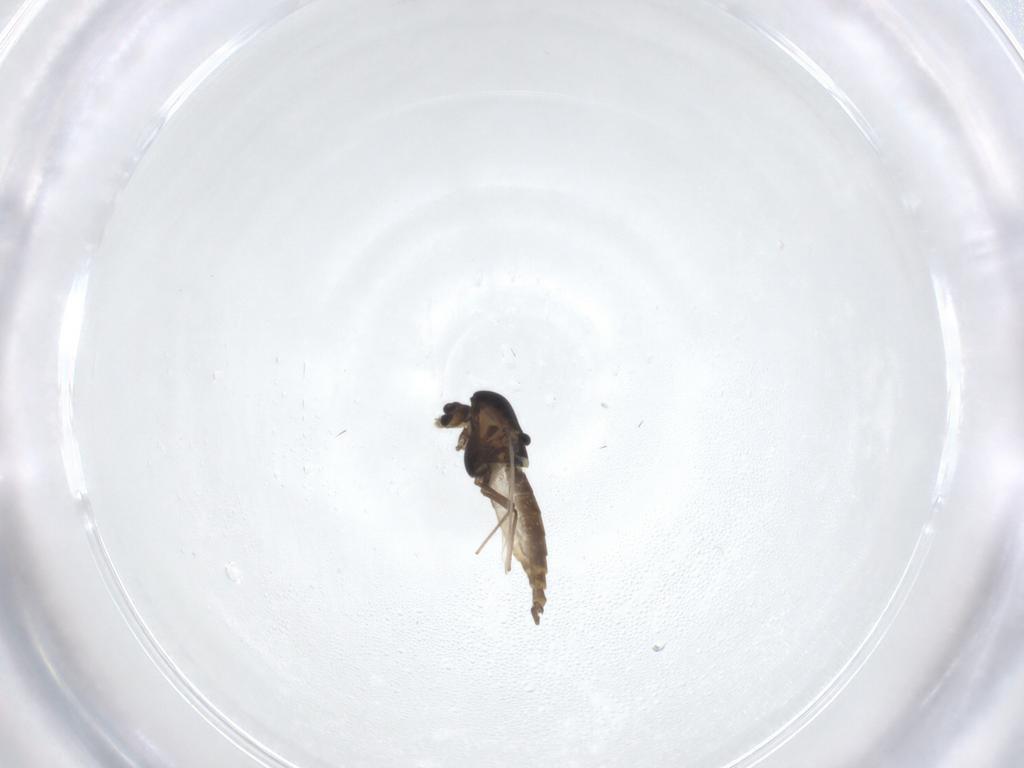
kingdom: Animalia
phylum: Arthropoda
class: Insecta
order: Diptera
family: Chironomidae
